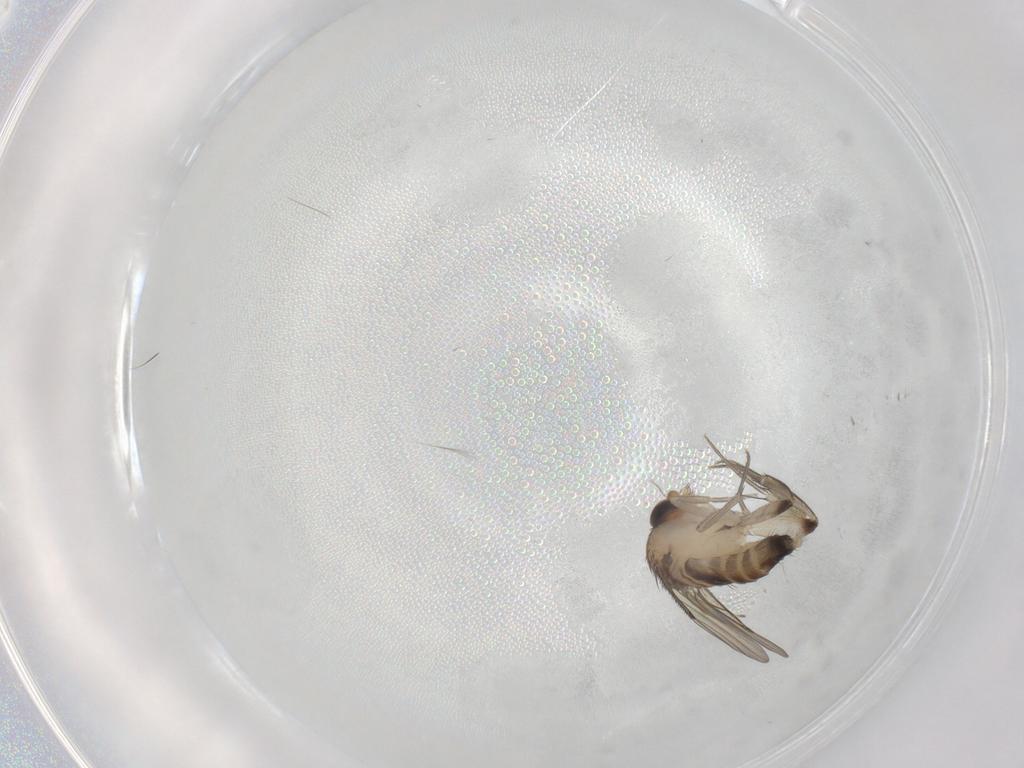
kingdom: Animalia
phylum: Arthropoda
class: Insecta
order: Diptera
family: Phoridae
